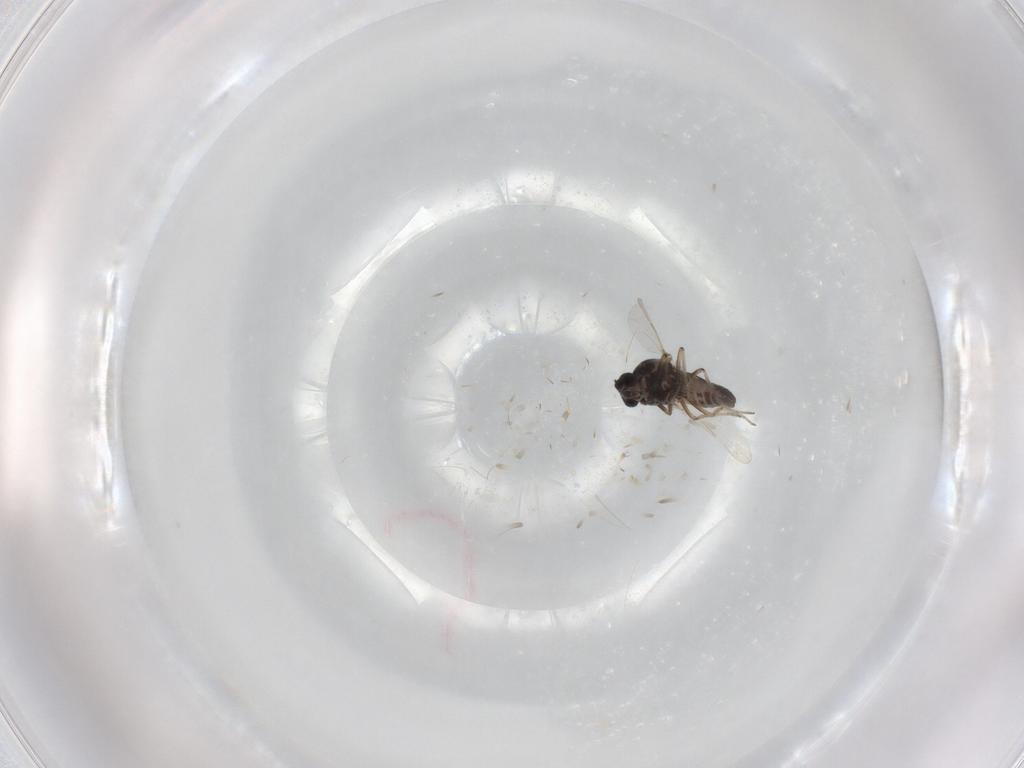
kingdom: Animalia
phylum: Arthropoda
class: Insecta
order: Diptera
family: Ceratopogonidae
